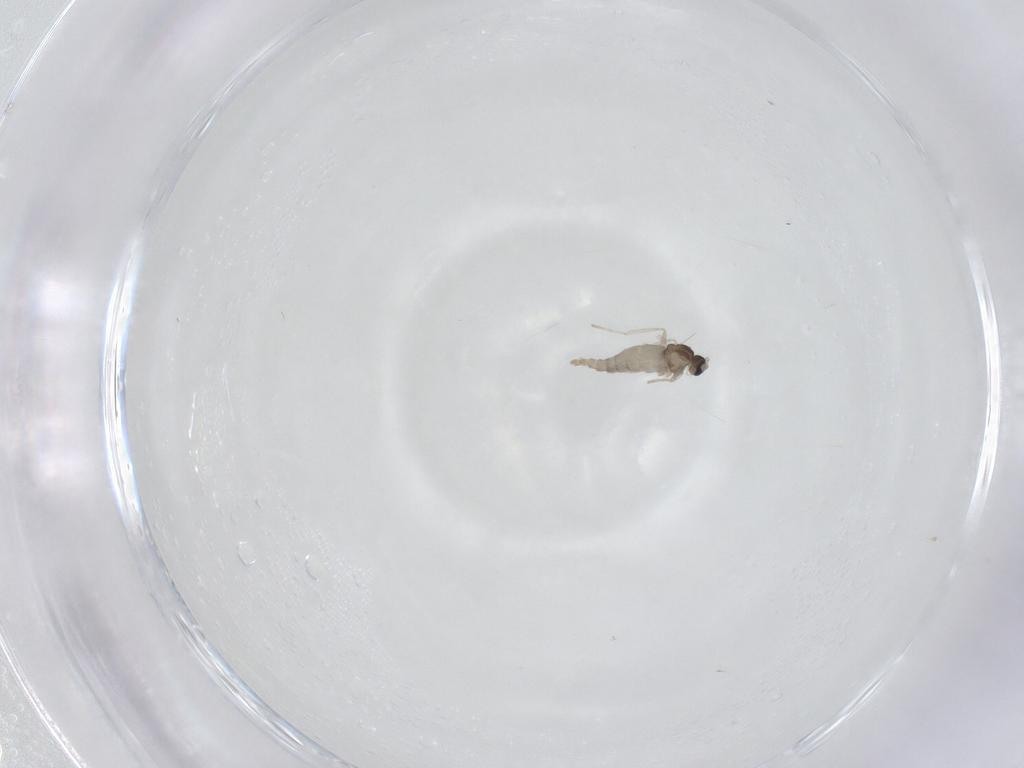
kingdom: Animalia
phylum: Arthropoda
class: Insecta
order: Diptera
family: Cecidomyiidae
